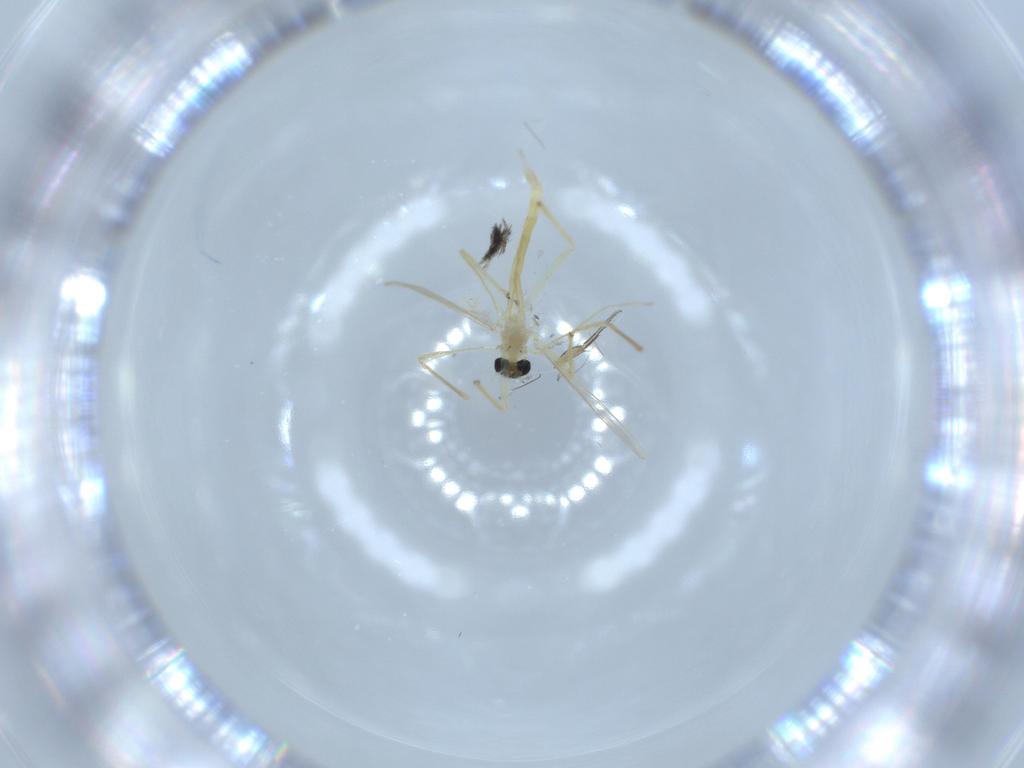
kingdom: Animalia
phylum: Arthropoda
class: Insecta
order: Diptera
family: Chironomidae
